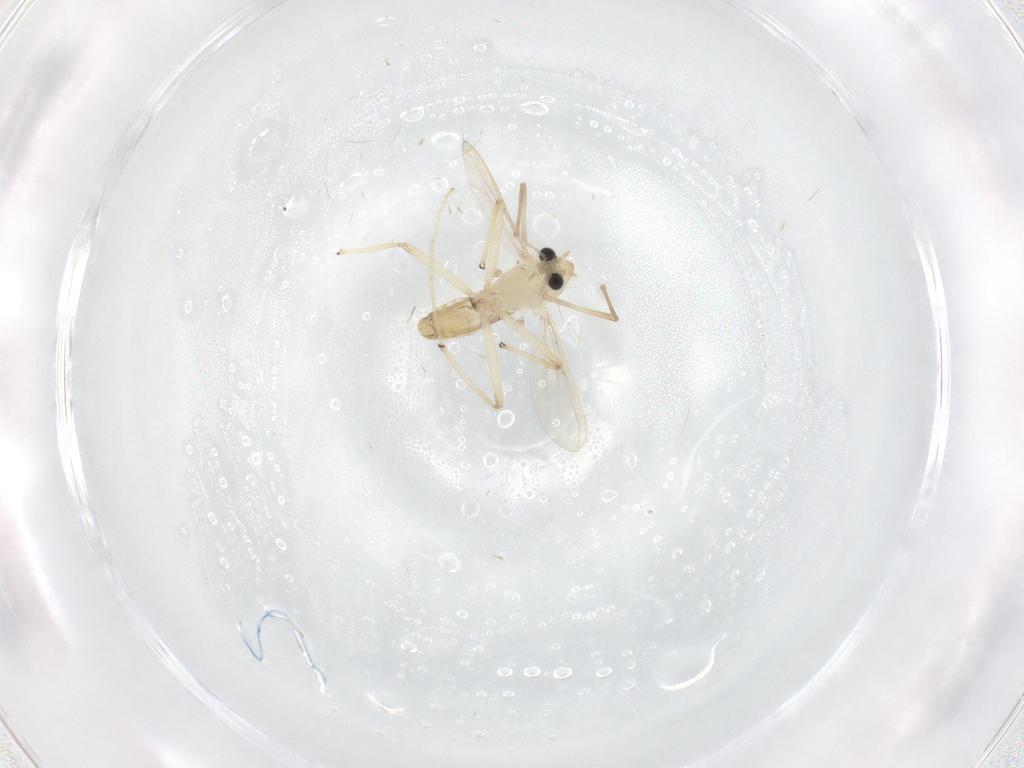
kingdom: Animalia
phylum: Arthropoda
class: Insecta
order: Diptera
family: Chironomidae
